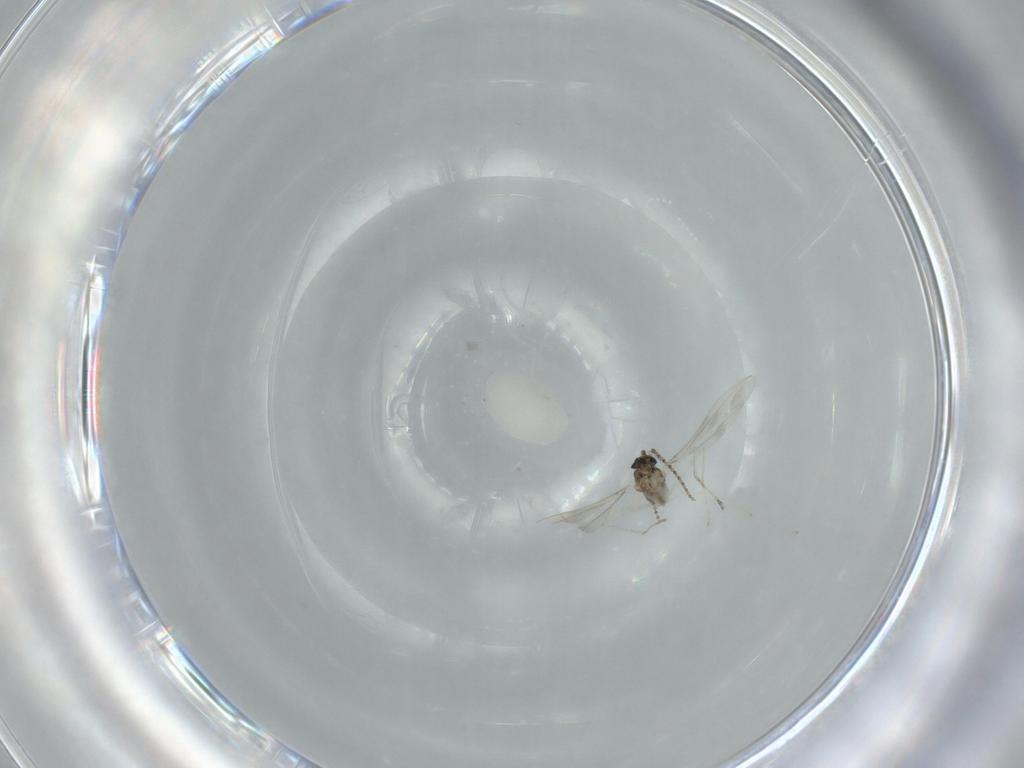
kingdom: Animalia
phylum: Arthropoda
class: Insecta
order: Diptera
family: Cecidomyiidae
